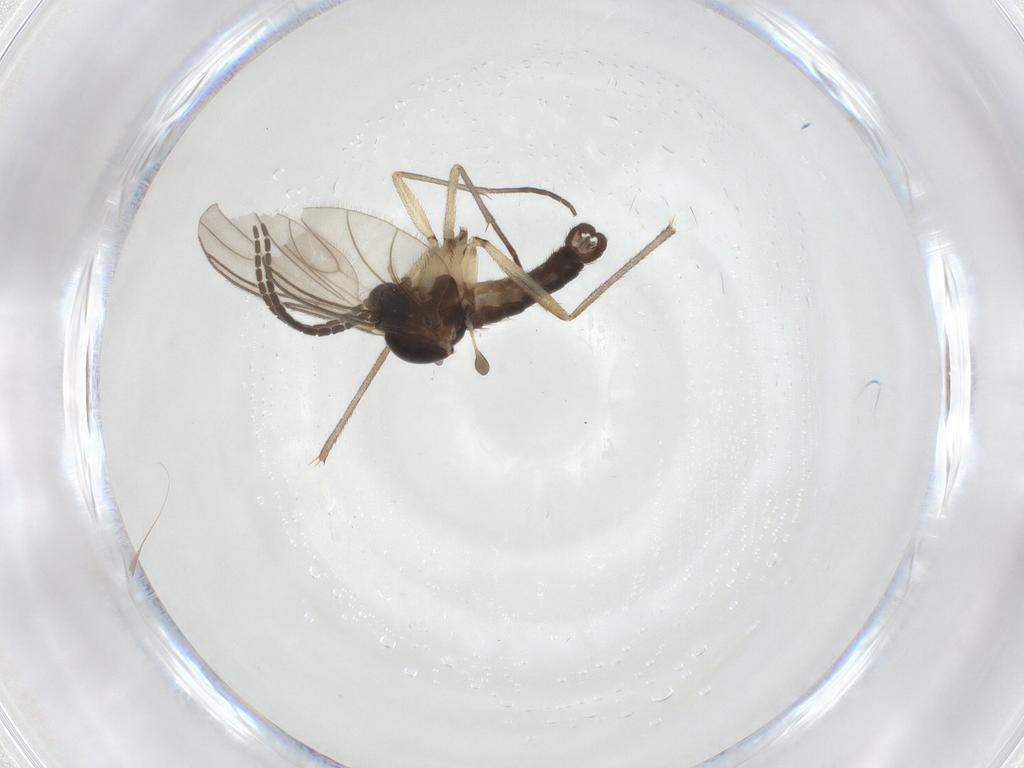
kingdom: Animalia
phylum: Arthropoda
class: Insecta
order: Diptera
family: Sciaridae
